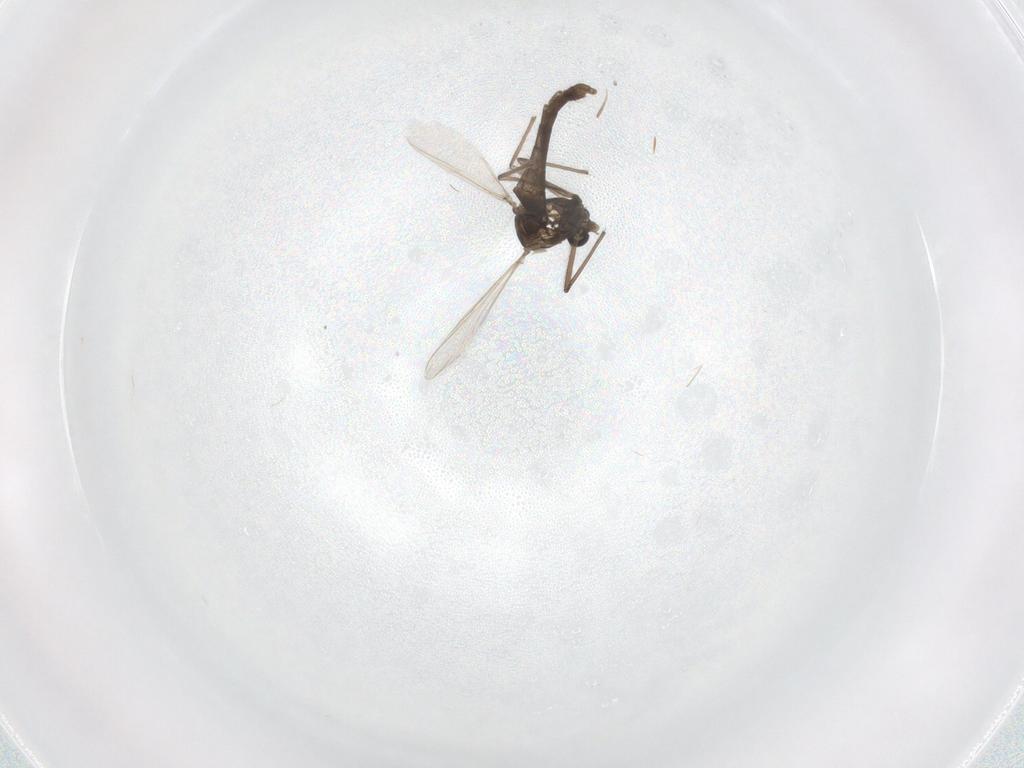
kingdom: Animalia
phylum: Arthropoda
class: Insecta
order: Diptera
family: Chironomidae
